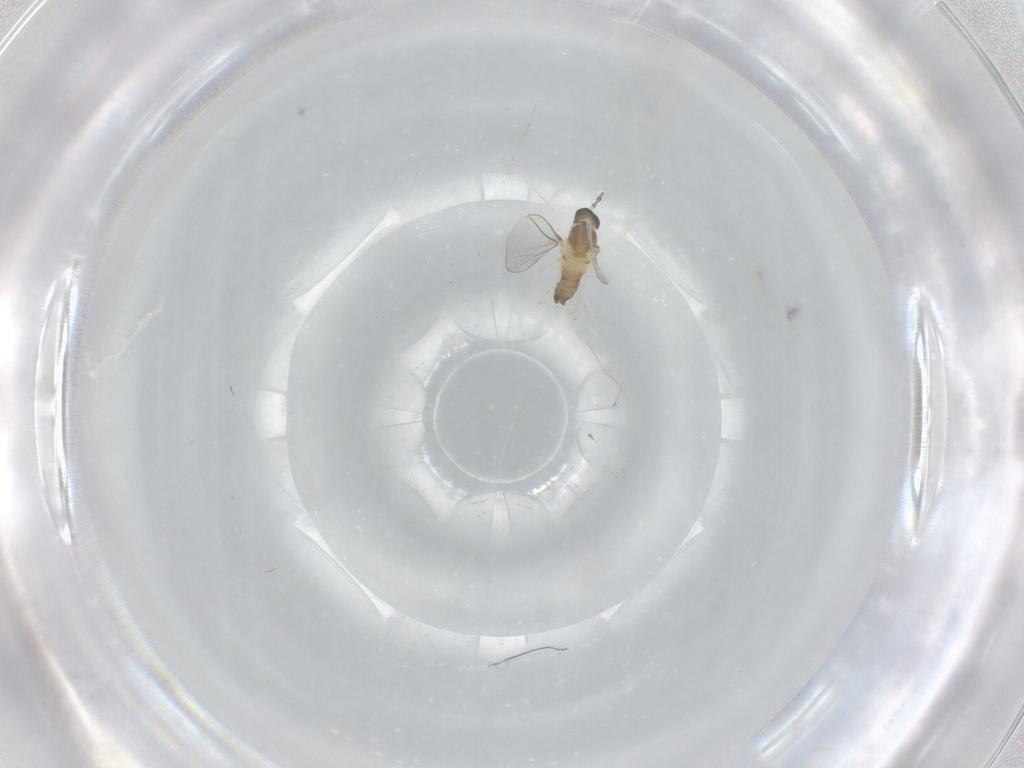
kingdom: Animalia
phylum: Arthropoda
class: Insecta
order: Diptera
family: Cecidomyiidae
